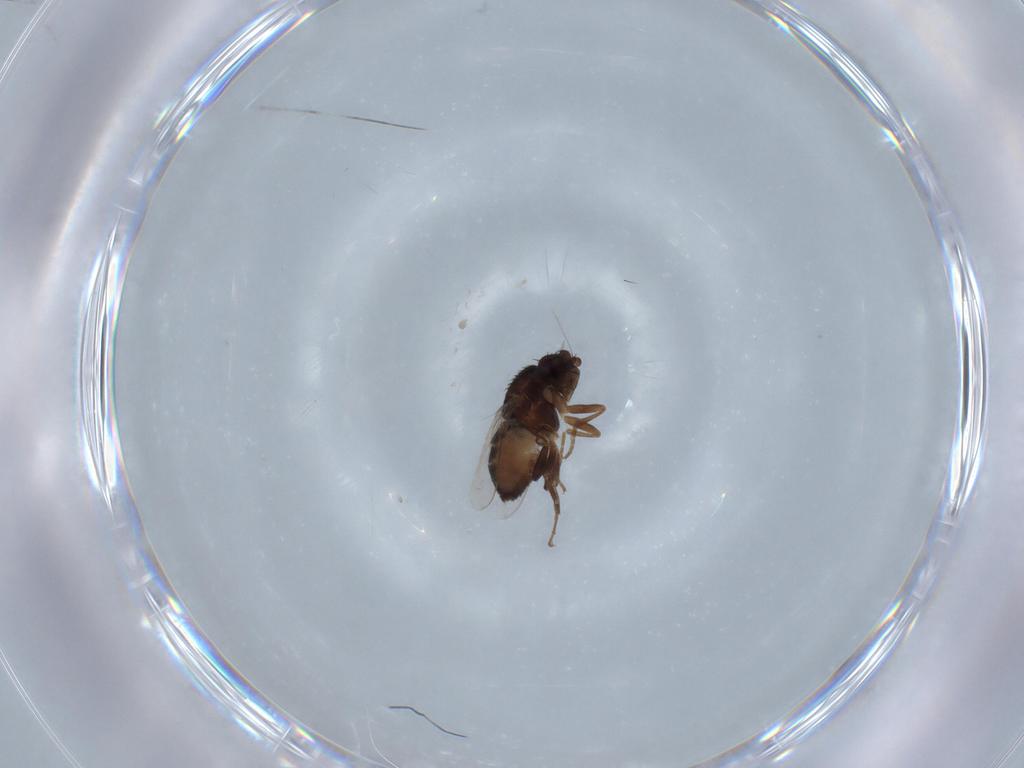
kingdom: Animalia
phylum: Arthropoda
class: Insecta
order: Diptera
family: Sphaeroceridae
